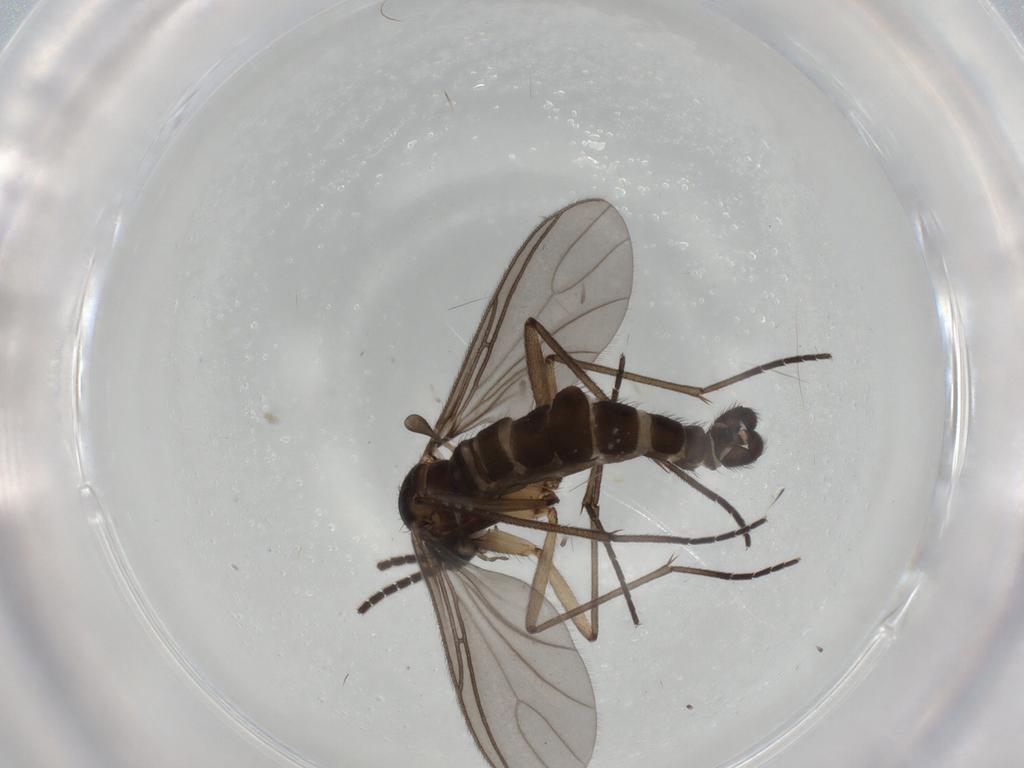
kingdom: Animalia
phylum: Arthropoda
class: Insecta
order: Diptera
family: Sciaridae
